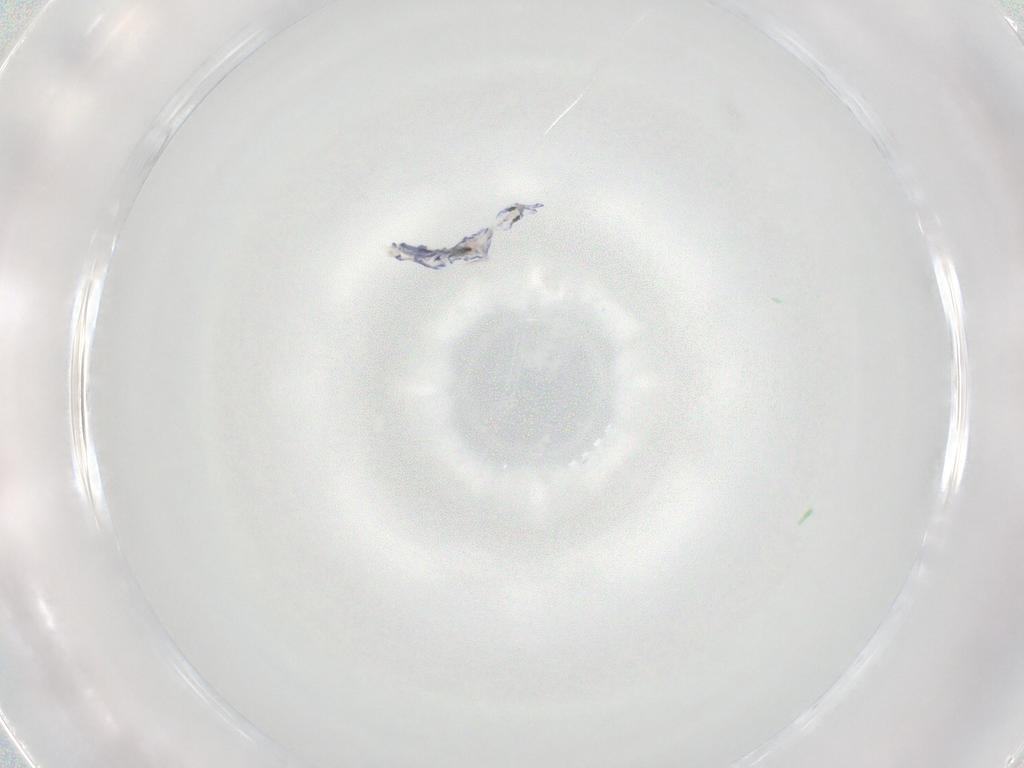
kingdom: Animalia
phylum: Arthropoda
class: Collembola
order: Entomobryomorpha
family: Entomobryidae
